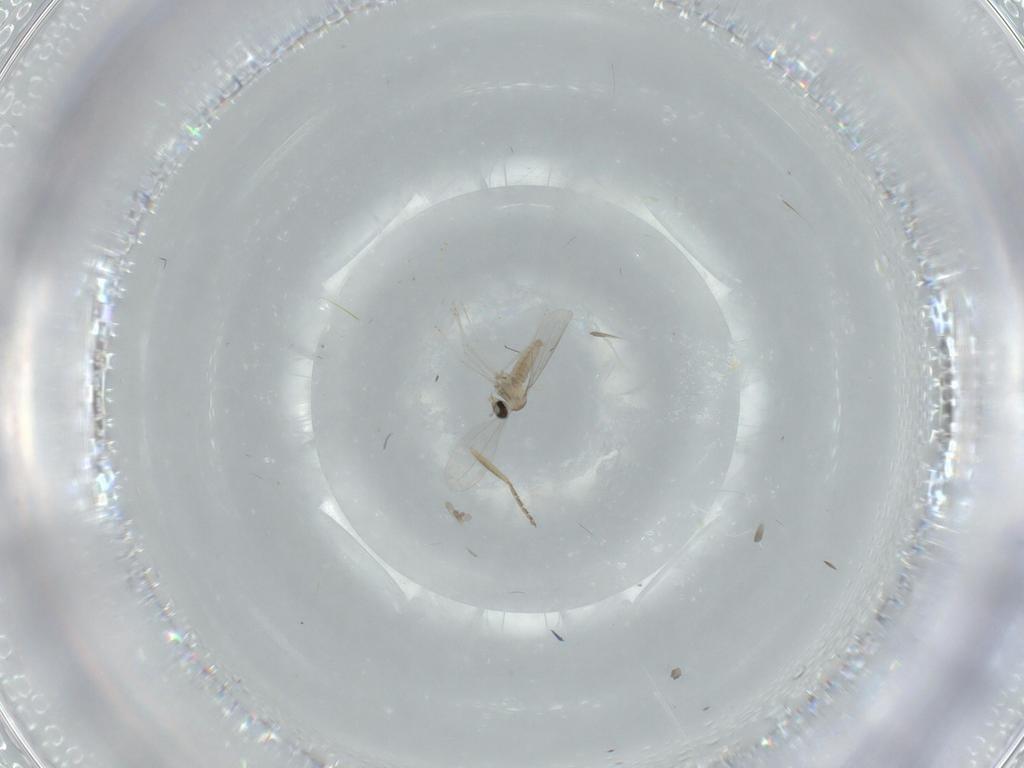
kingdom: Animalia
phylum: Arthropoda
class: Insecta
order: Diptera
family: Cecidomyiidae
